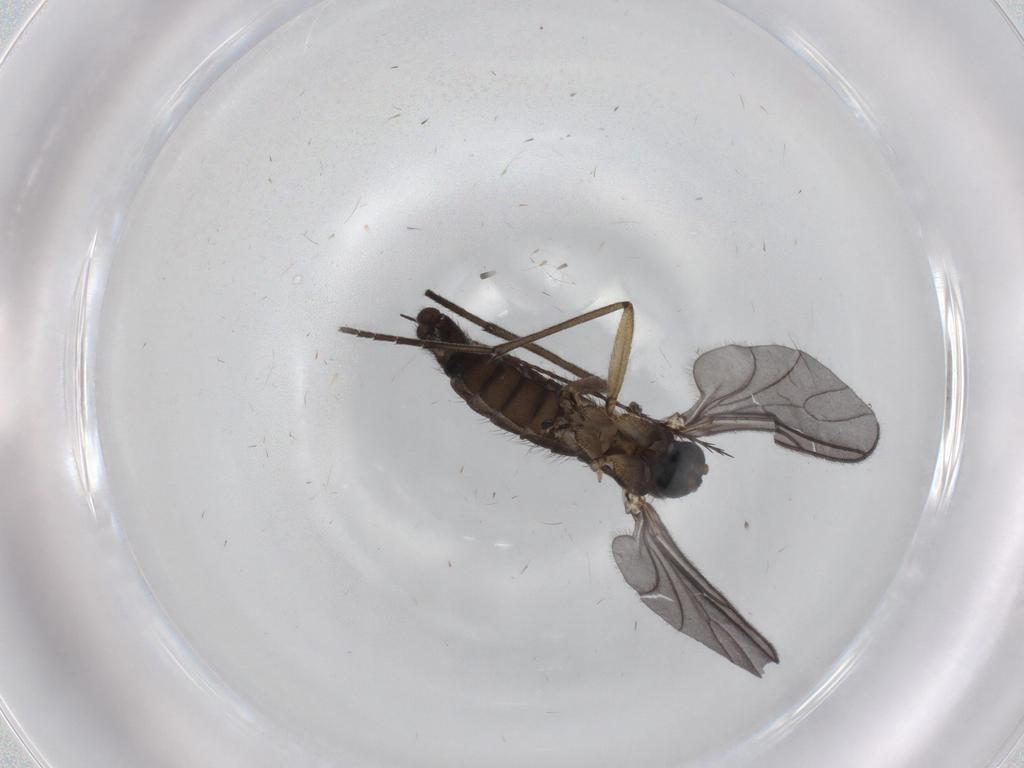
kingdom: Animalia
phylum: Arthropoda
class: Insecta
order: Diptera
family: Sciaridae
